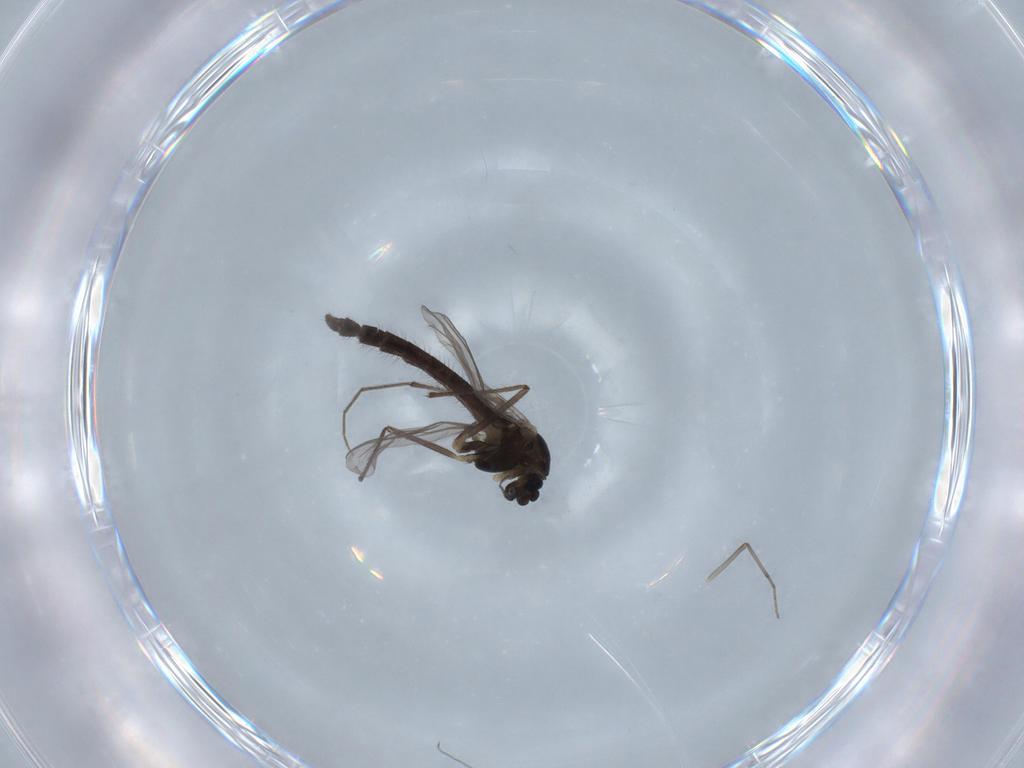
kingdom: Animalia
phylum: Arthropoda
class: Insecta
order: Diptera
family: Chironomidae
